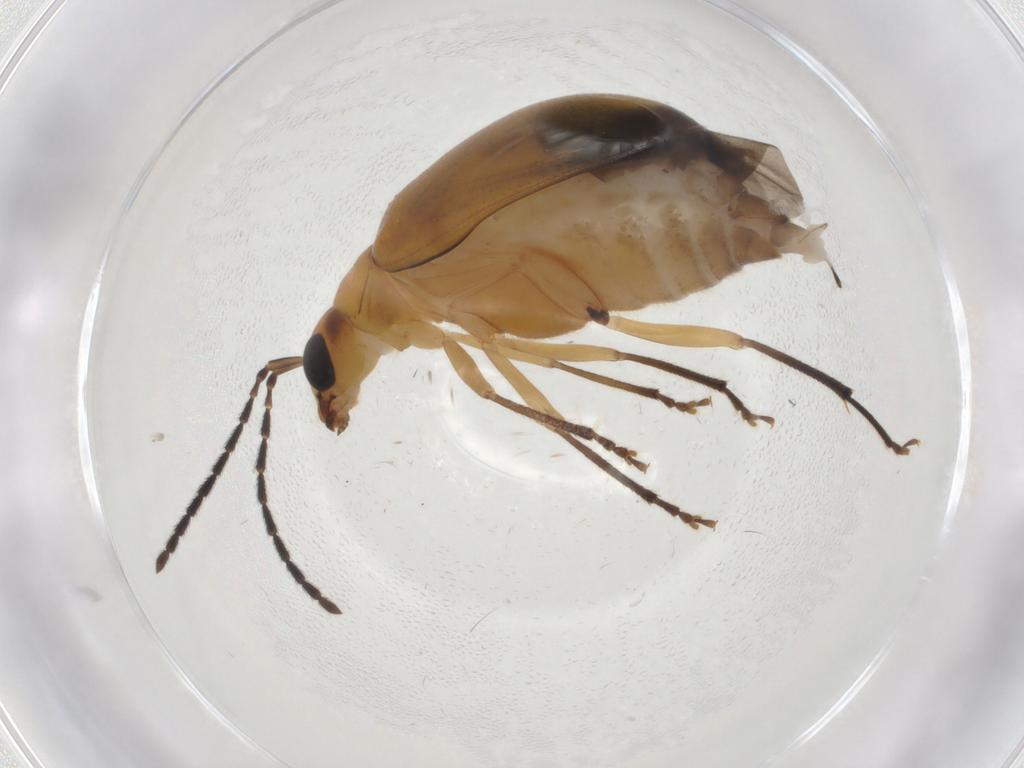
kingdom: Animalia
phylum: Arthropoda
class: Insecta
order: Coleoptera
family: Chrysomelidae
